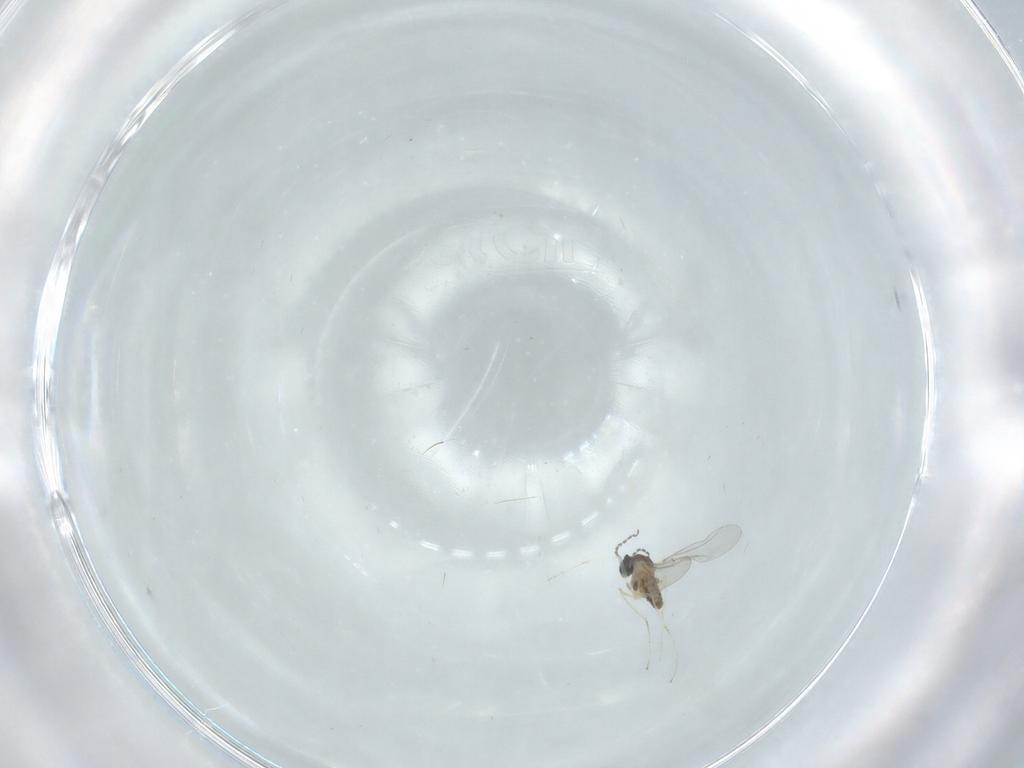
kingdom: Animalia
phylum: Arthropoda
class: Insecta
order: Diptera
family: Cecidomyiidae
